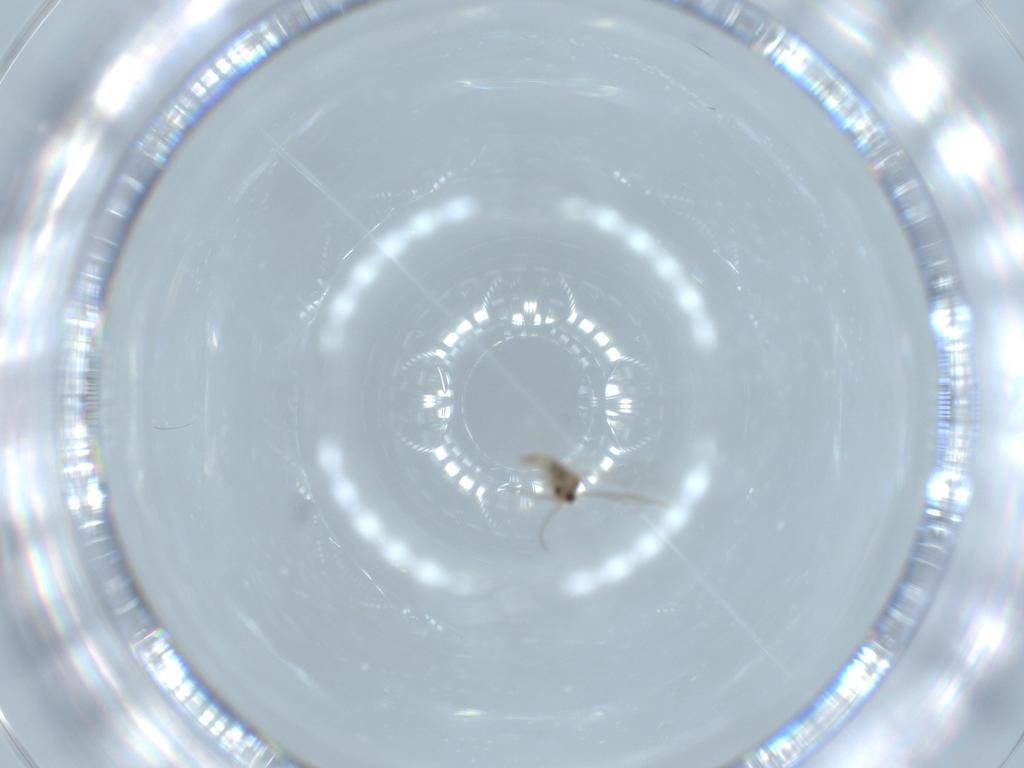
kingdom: Animalia
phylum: Arthropoda
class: Insecta
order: Diptera
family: Cecidomyiidae
